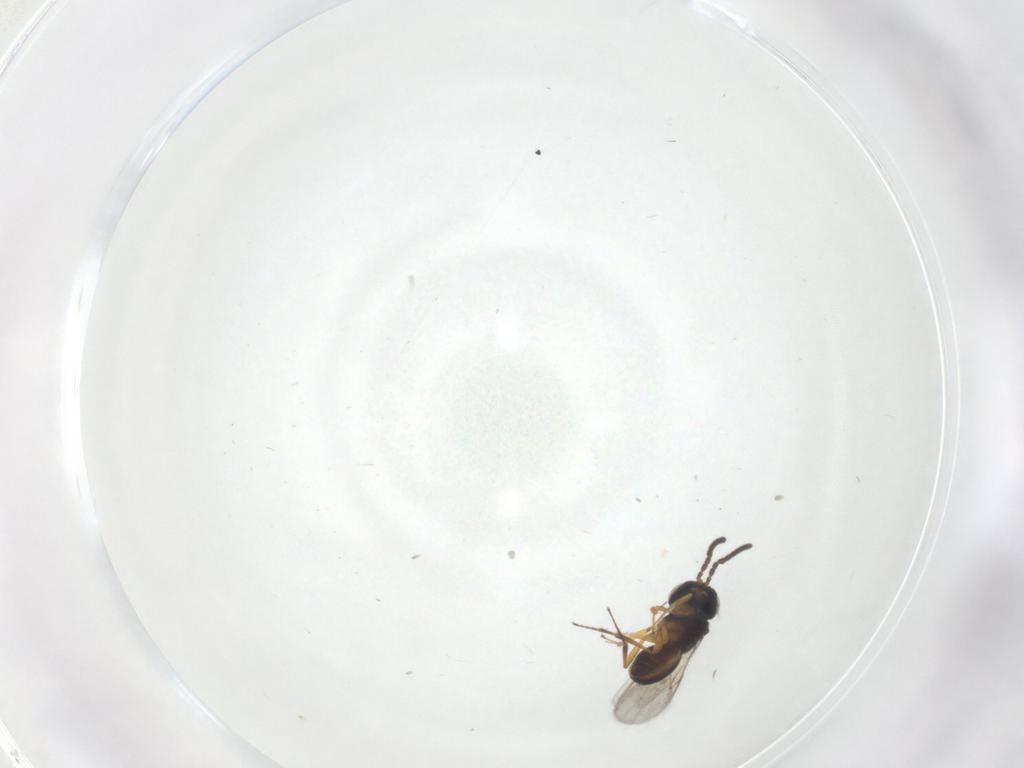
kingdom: Animalia
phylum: Arthropoda
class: Insecta
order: Hymenoptera
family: Scelionidae
